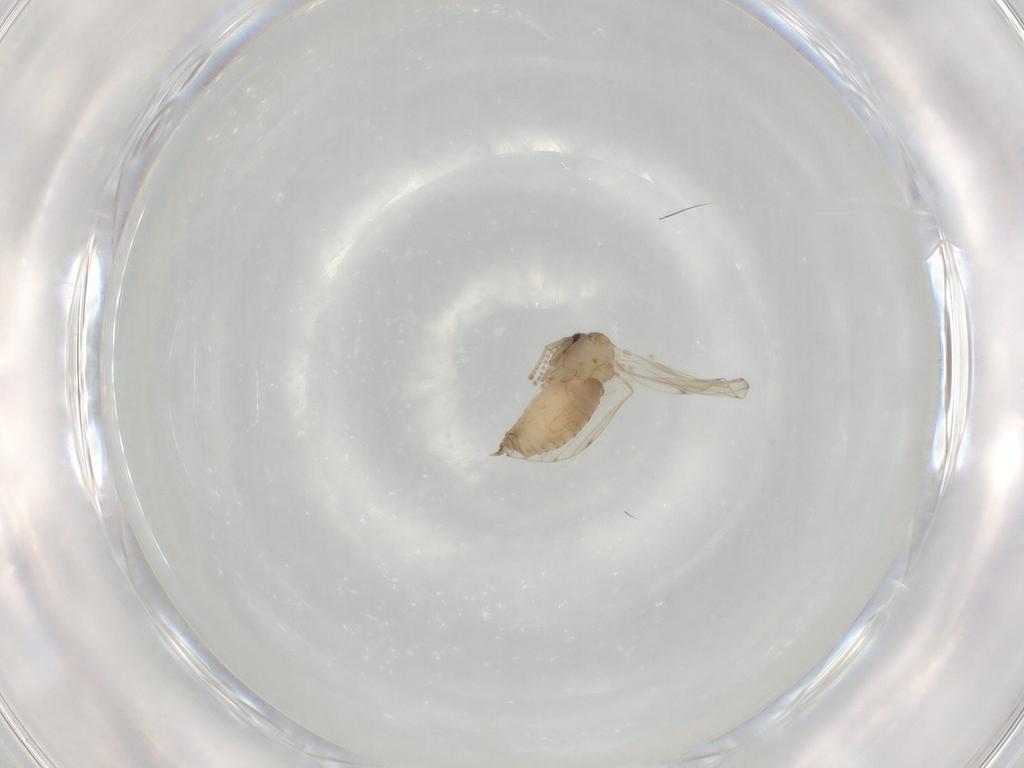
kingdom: Animalia
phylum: Arthropoda
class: Insecta
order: Diptera
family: Psychodidae
